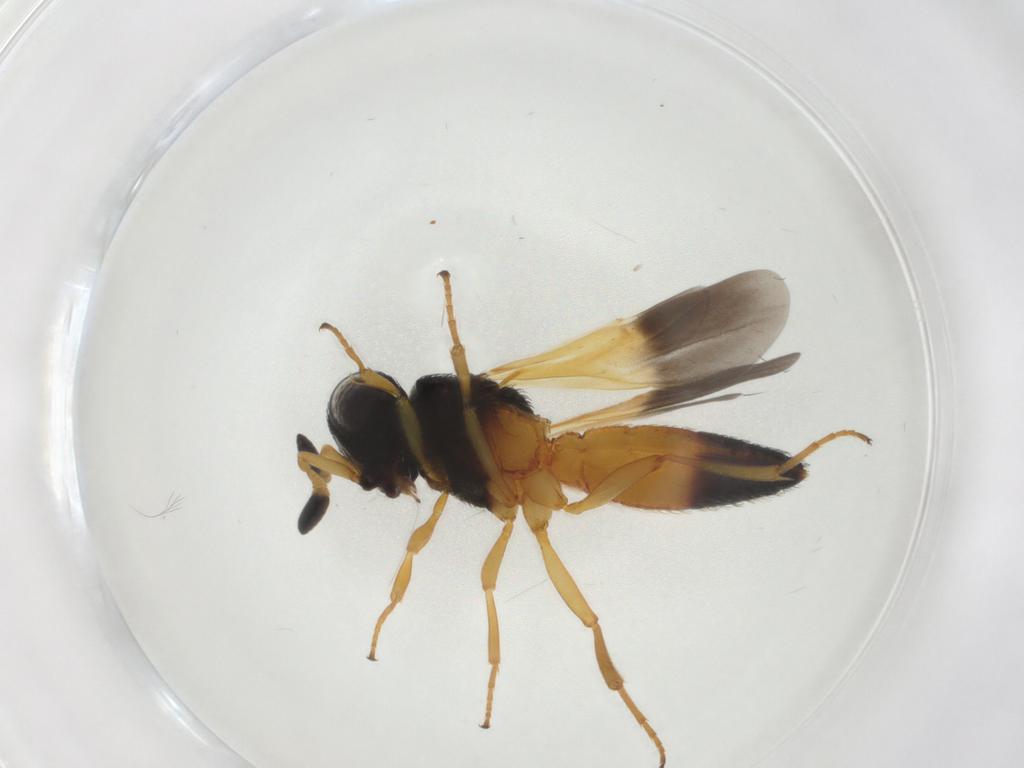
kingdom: Animalia
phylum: Arthropoda
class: Insecta
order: Hymenoptera
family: Scelionidae
